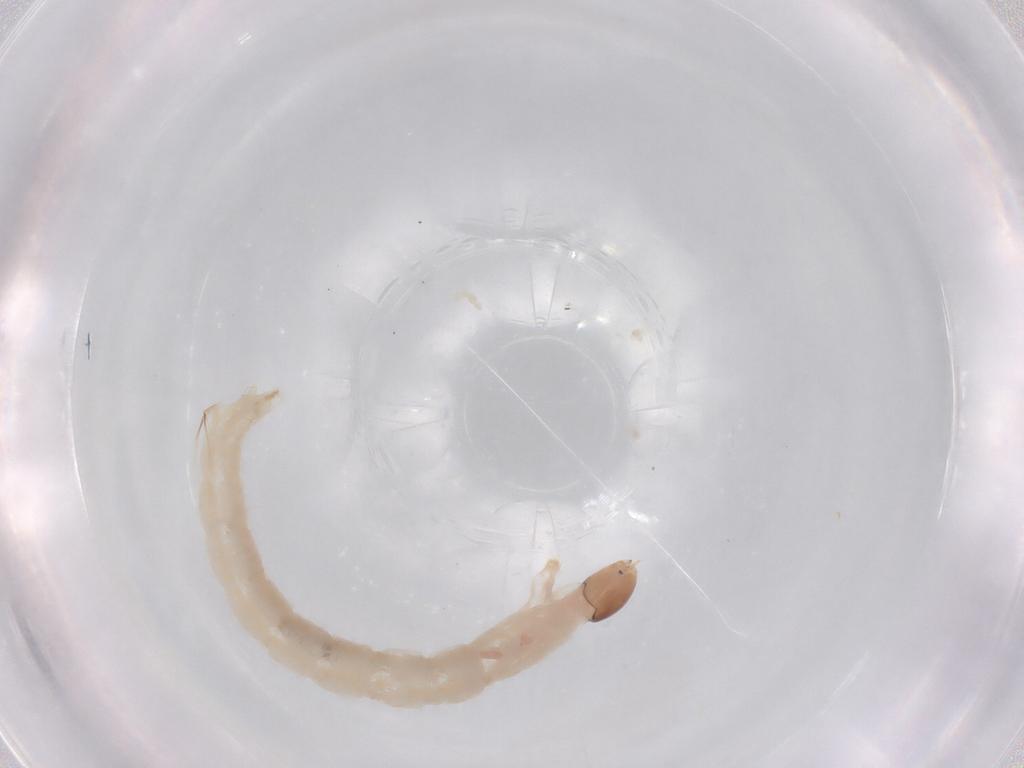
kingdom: Animalia
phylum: Arthropoda
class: Insecta
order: Diptera
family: Chironomidae
